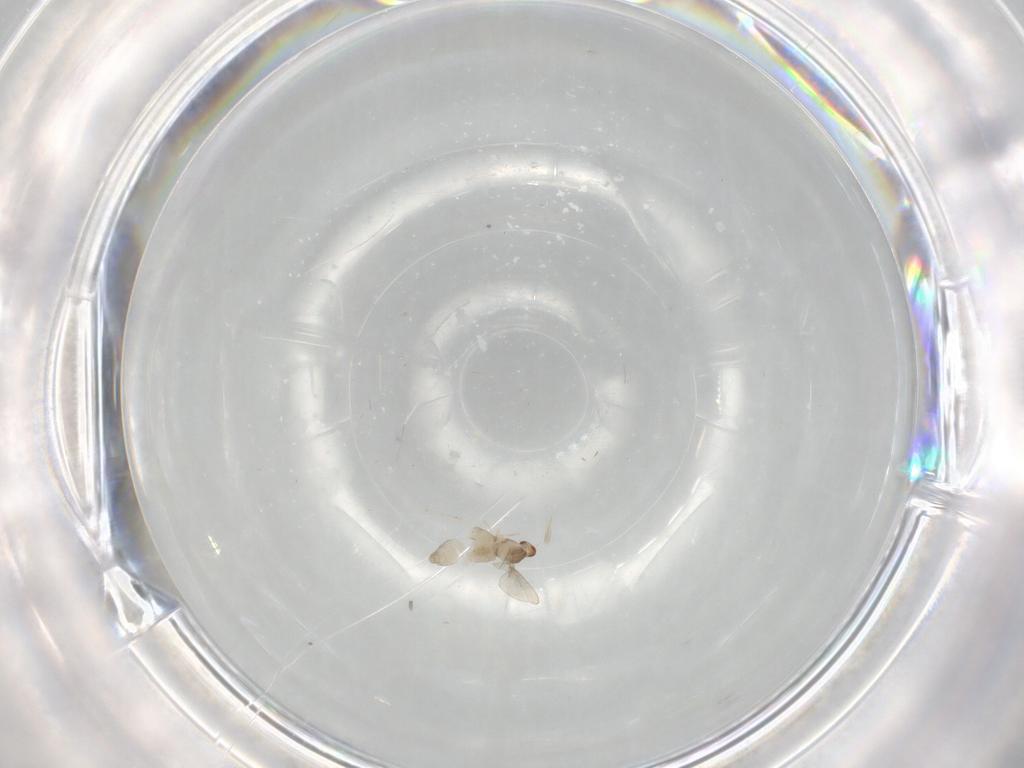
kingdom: Animalia
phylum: Arthropoda
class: Insecta
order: Diptera
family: Cecidomyiidae
